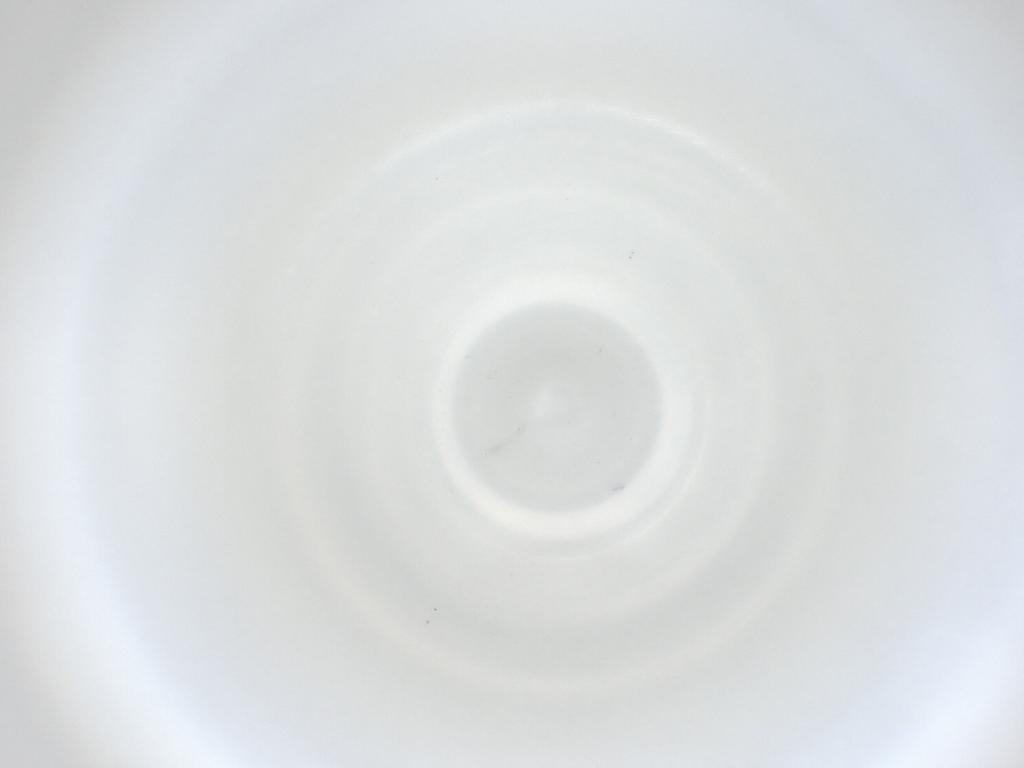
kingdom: Animalia
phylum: Arthropoda
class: Insecta
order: Diptera
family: Cecidomyiidae
